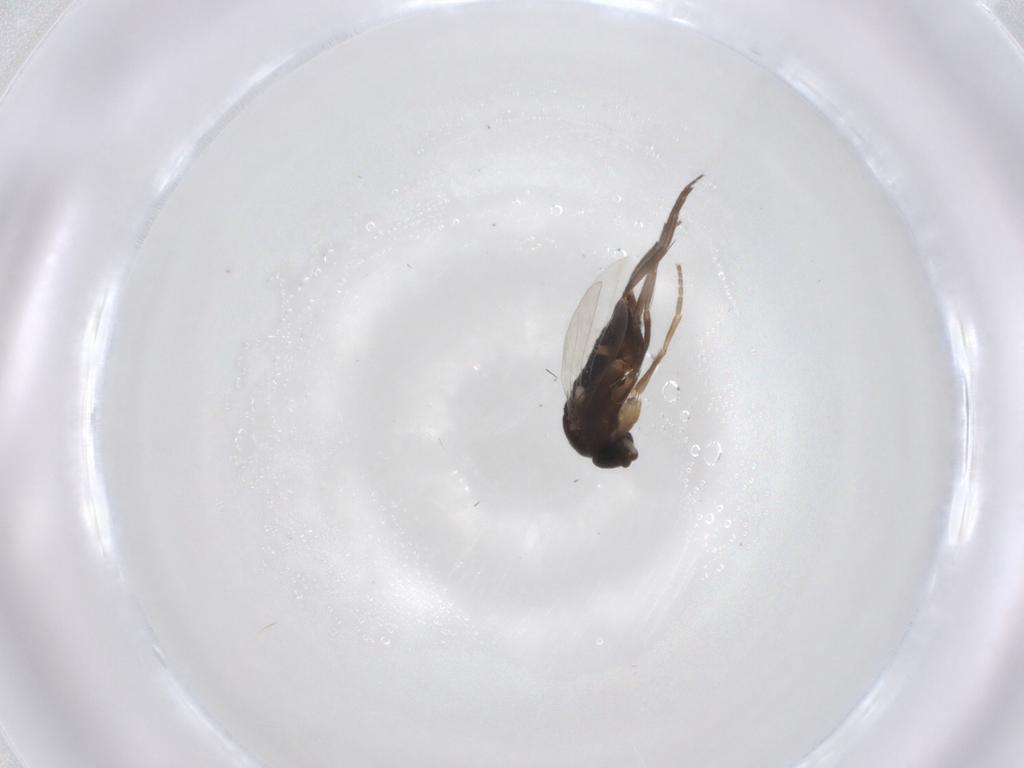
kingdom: Animalia
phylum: Arthropoda
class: Insecta
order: Diptera
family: Phoridae
